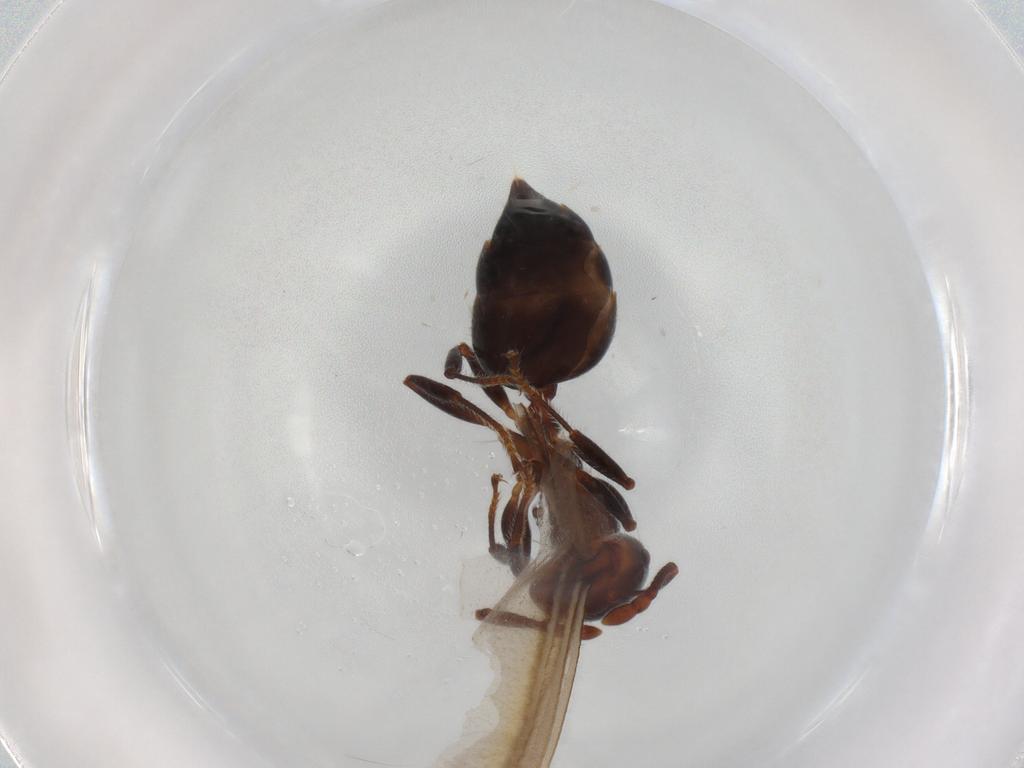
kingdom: Animalia
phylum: Arthropoda
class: Insecta
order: Hymenoptera
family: Formicidae
